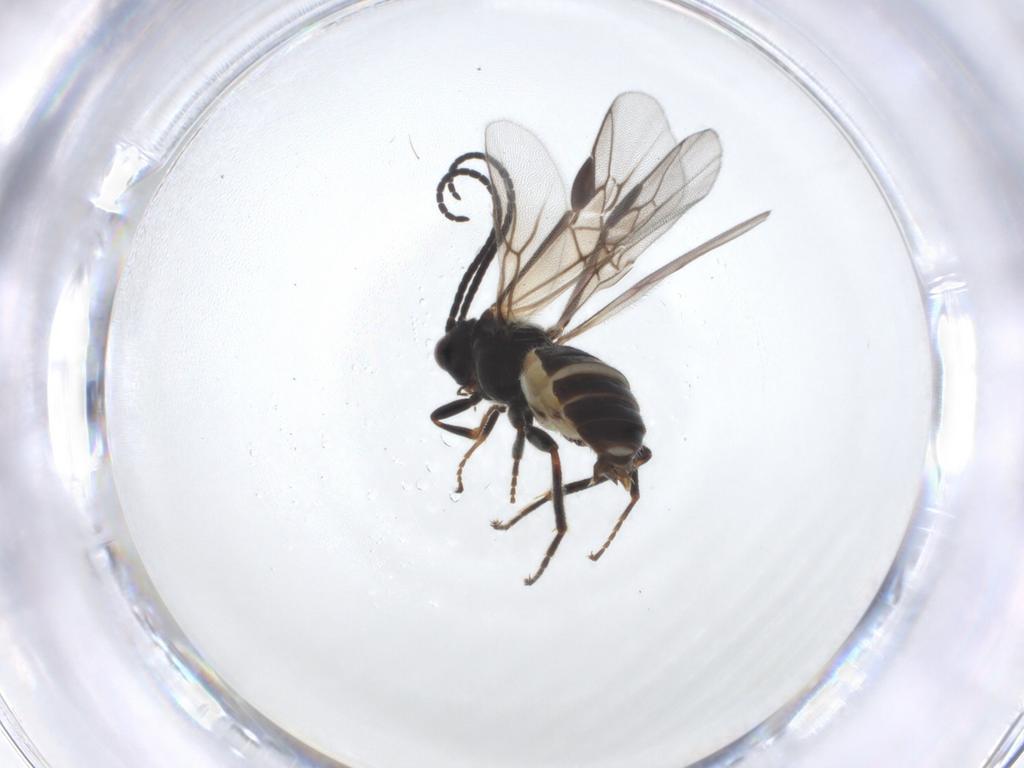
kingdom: Animalia
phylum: Arthropoda
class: Insecta
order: Hymenoptera
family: Braconidae
